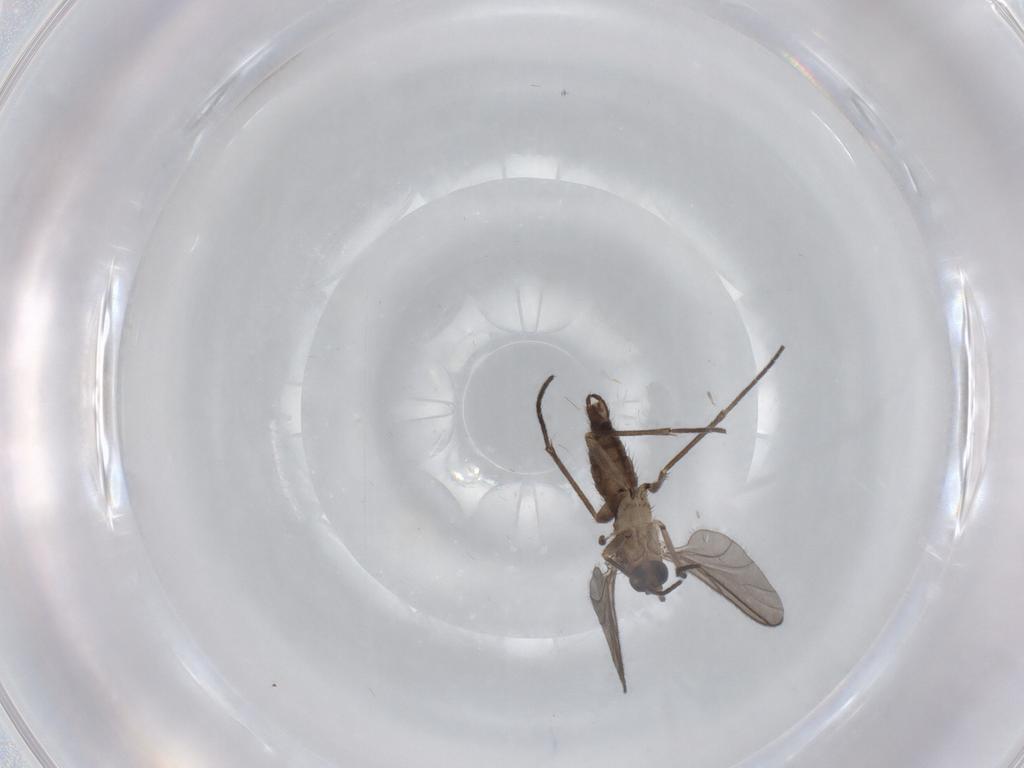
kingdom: Animalia
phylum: Arthropoda
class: Insecta
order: Diptera
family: Sciaridae
